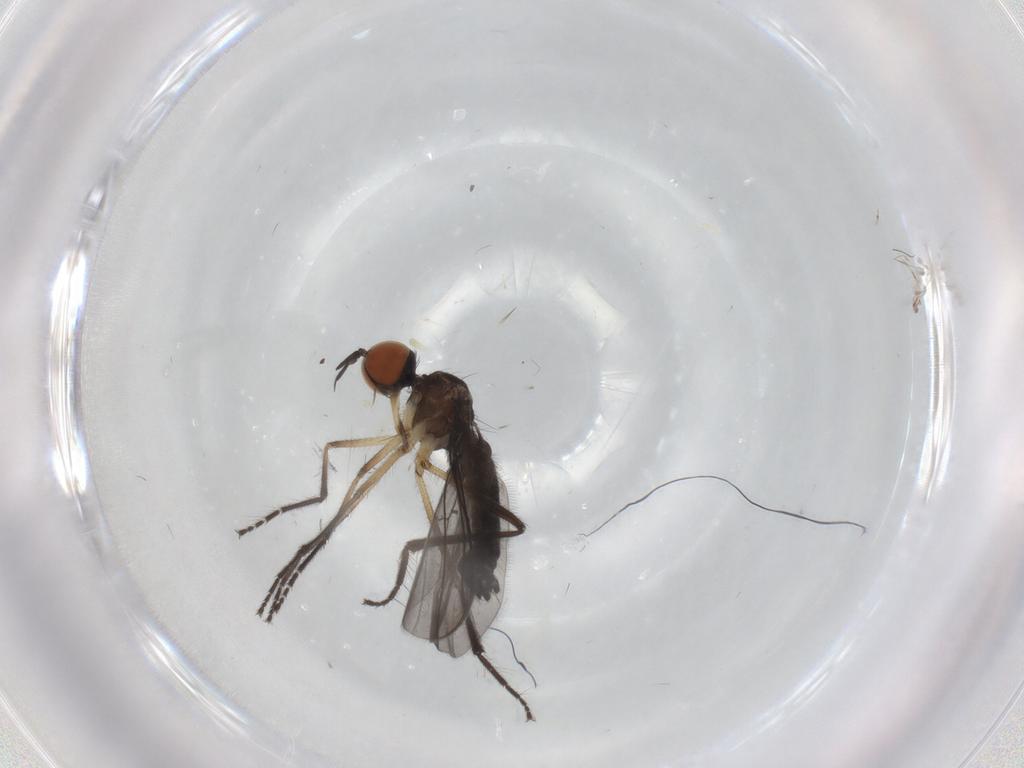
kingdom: Animalia
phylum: Arthropoda
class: Insecta
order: Diptera
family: Empididae
